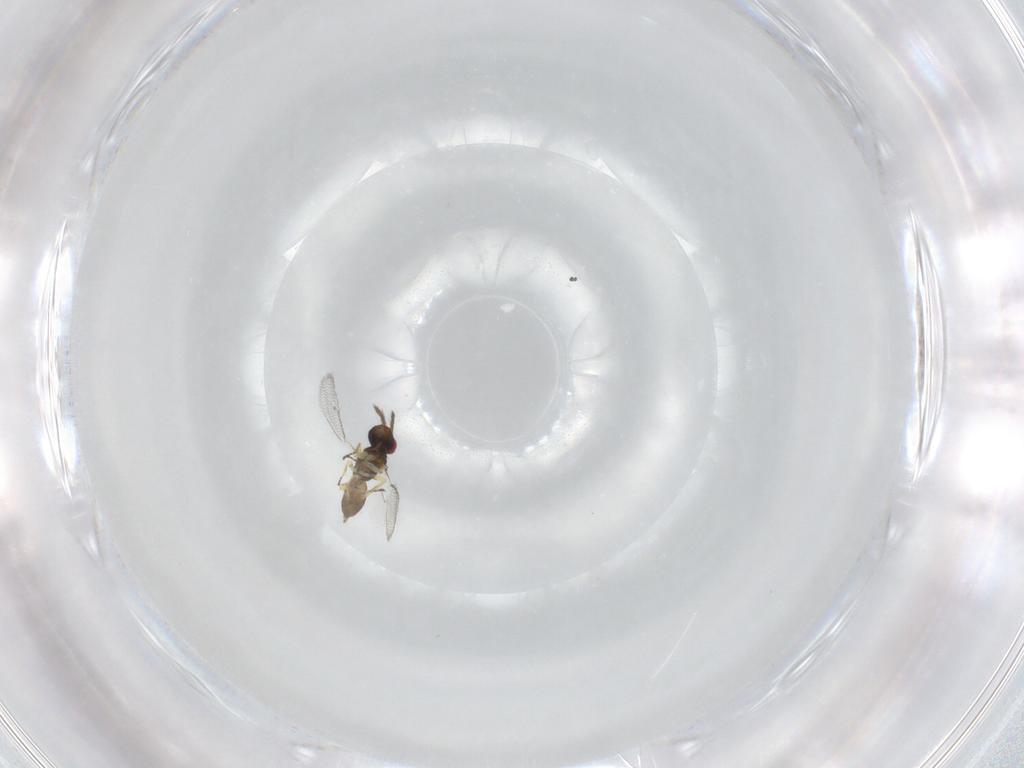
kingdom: Animalia
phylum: Arthropoda
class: Insecta
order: Hymenoptera
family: Eulophidae
